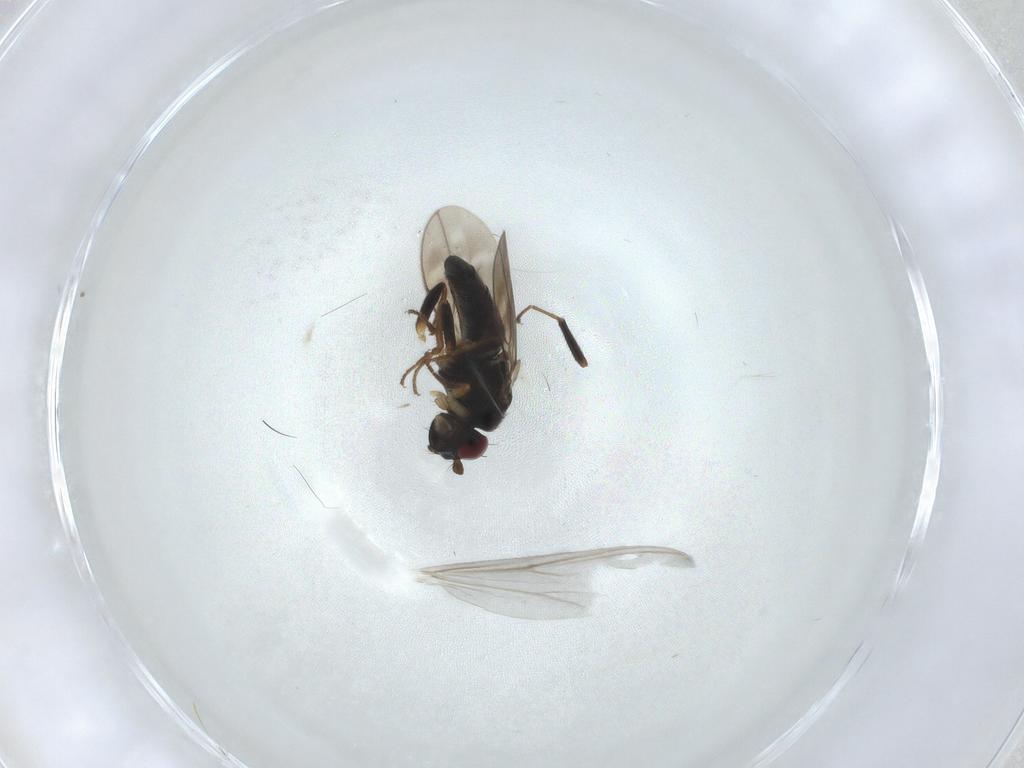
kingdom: Animalia
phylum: Arthropoda
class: Insecta
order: Diptera
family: Sphaeroceridae
